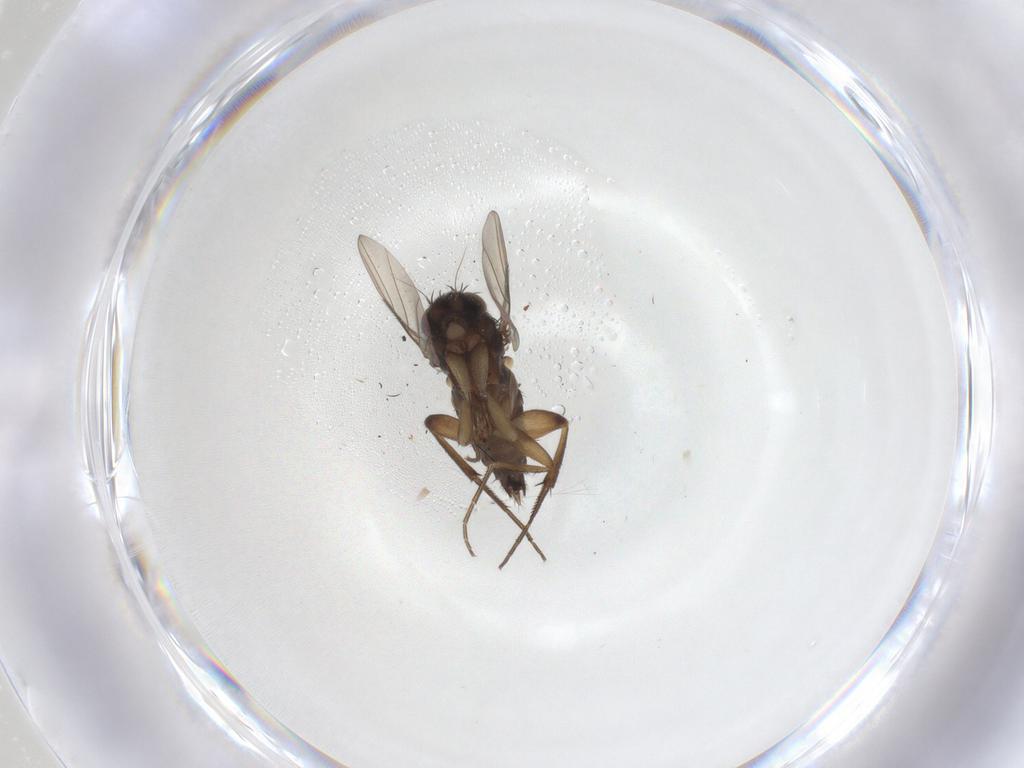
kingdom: Animalia
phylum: Arthropoda
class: Insecta
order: Diptera
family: Phoridae
